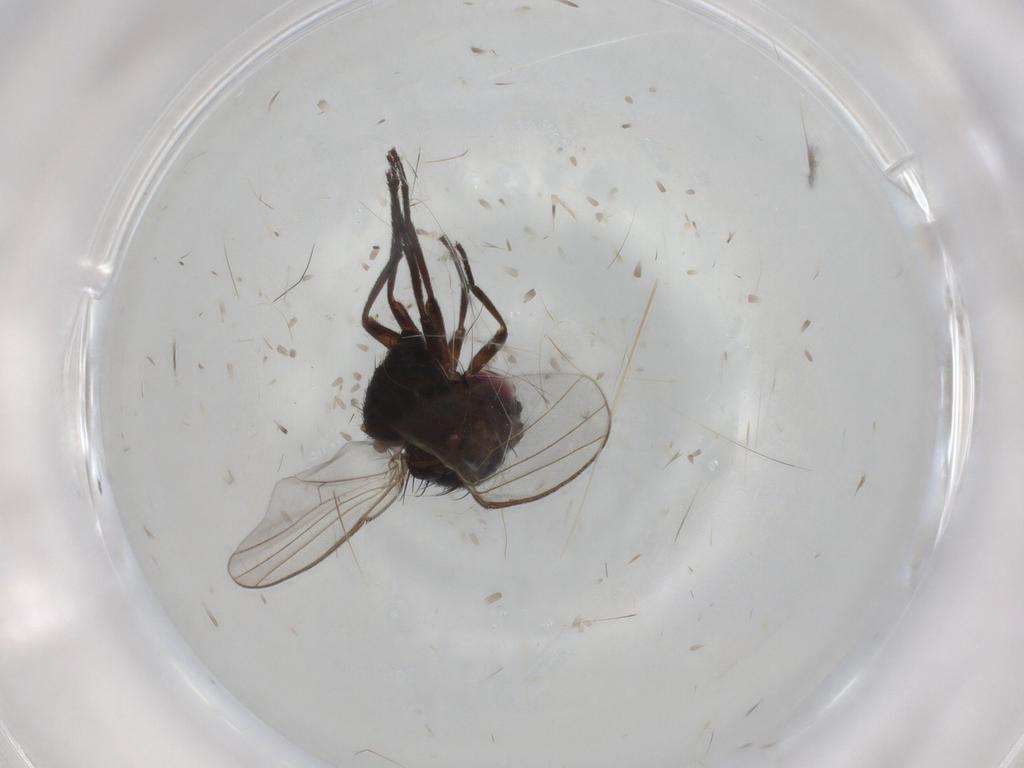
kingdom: Animalia
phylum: Arthropoda
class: Insecta
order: Diptera
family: Agromyzidae
